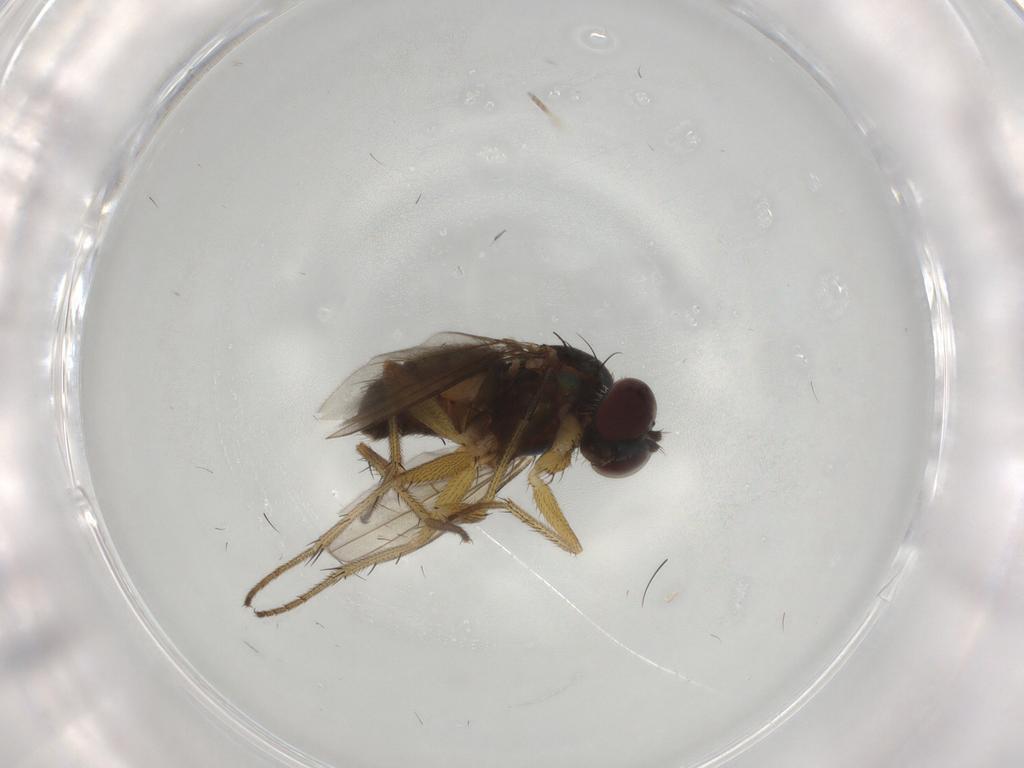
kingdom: Animalia
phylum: Arthropoda
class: Insecta
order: Diptera
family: Dolichopodidae
